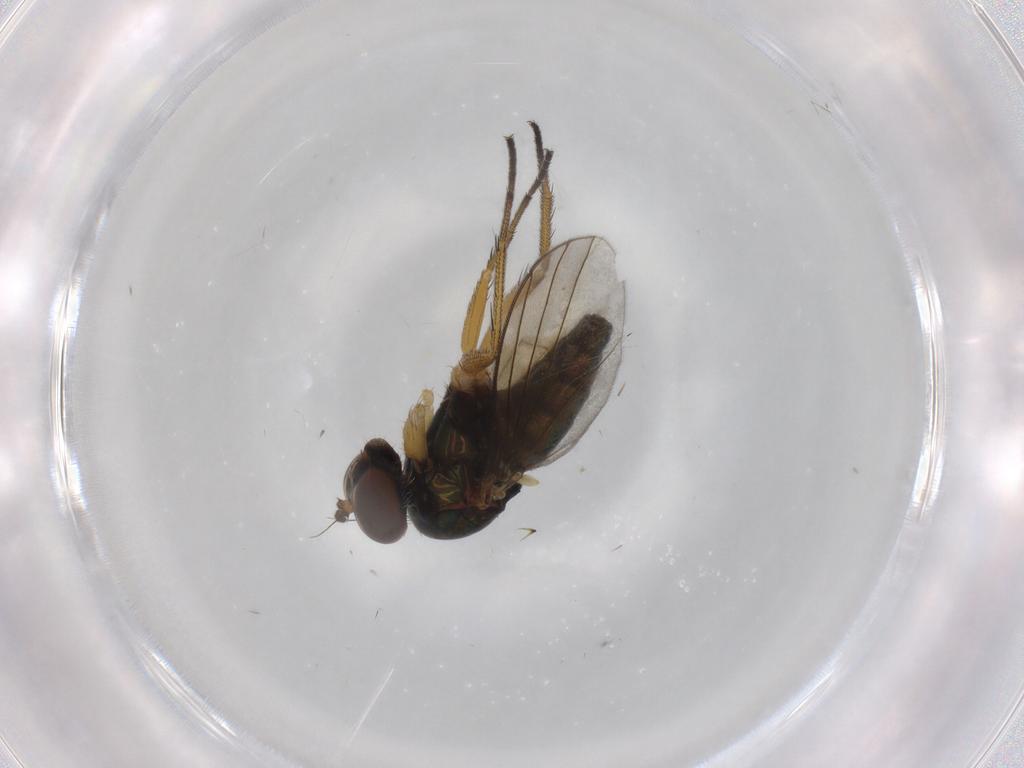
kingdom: Animalia
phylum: Arthropoda
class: Insecta
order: Diptera
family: Dolichopodidae
